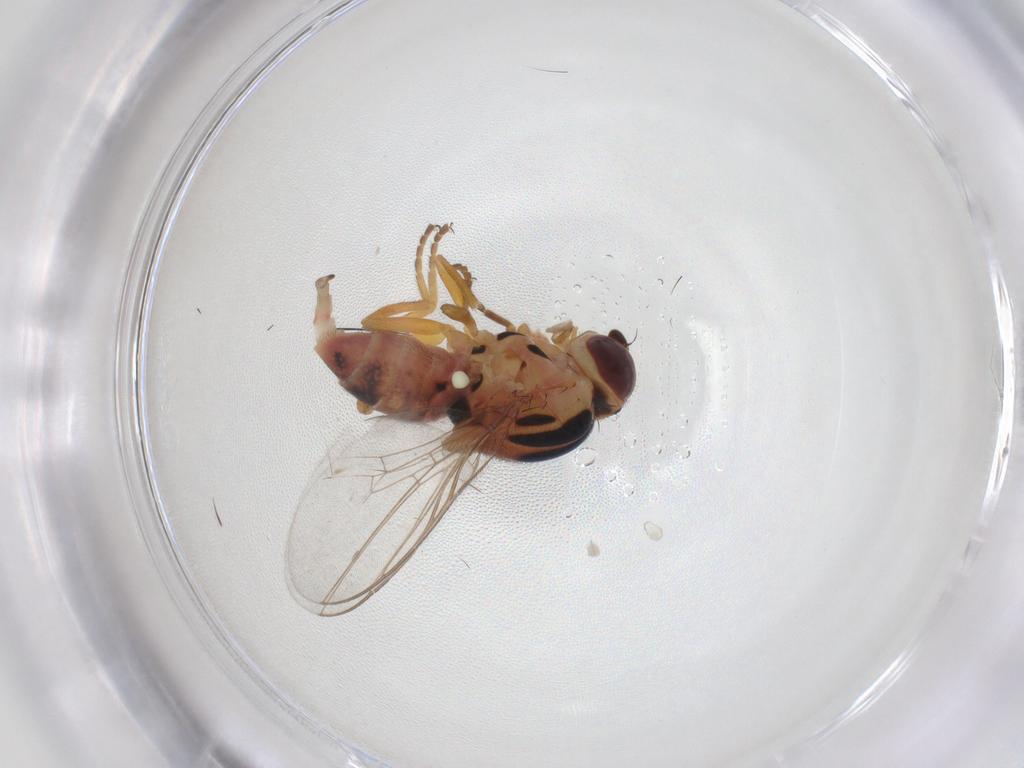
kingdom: Animalia
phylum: Arthropoda
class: Insecta
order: Diptera
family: Chloropidae
